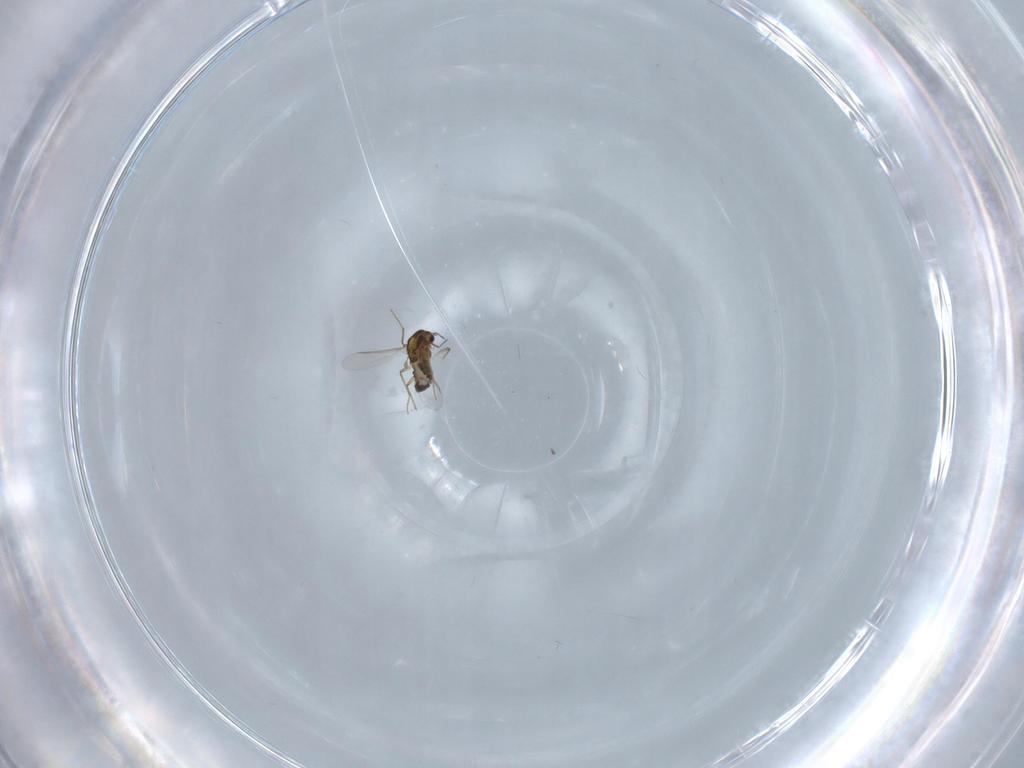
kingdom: Animalia
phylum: Arthropoda
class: Insecta
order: Diptera
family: Chironomidae
